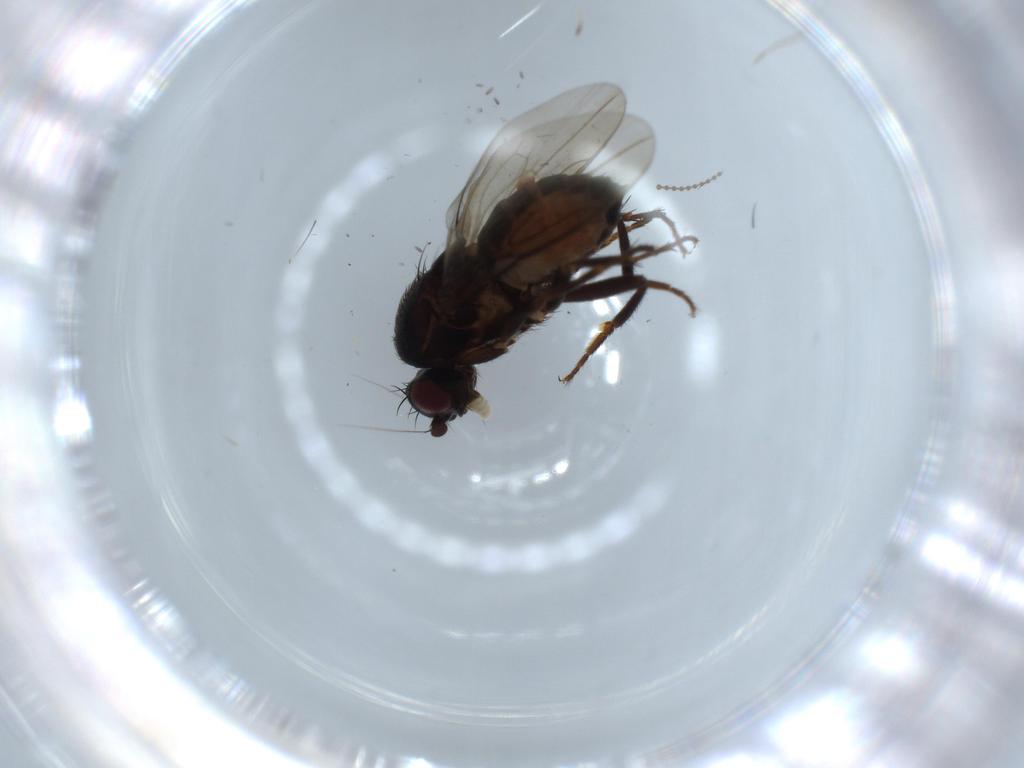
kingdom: Animalia
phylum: Arthropoda
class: Insecta
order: Diptera
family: Sphaeroceridae
